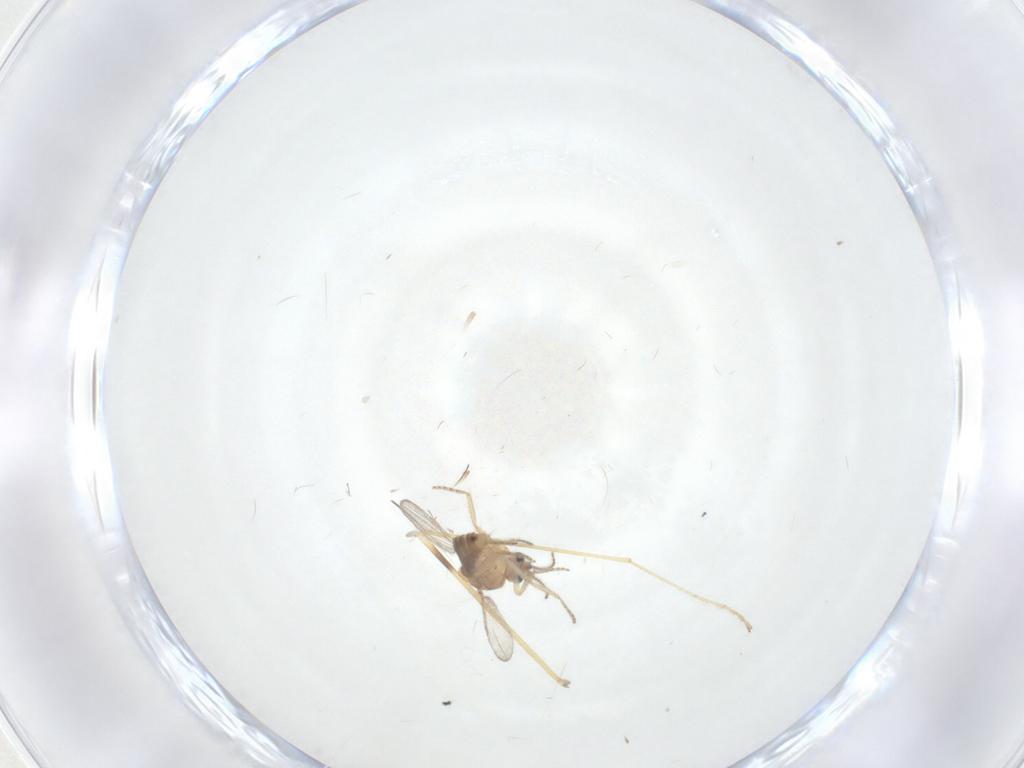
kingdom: Animalia
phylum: Arthropoda
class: Insecta
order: Diptera
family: Limoniidae
